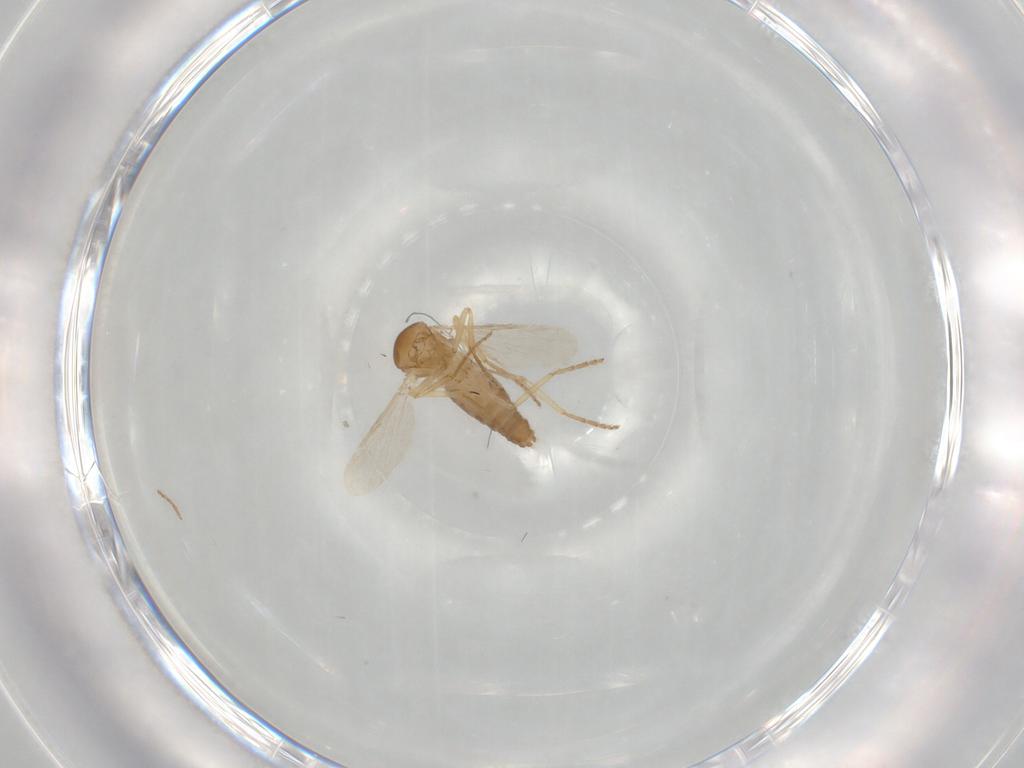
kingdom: Animalia
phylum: Arthropoda
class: Insecta
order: Diptera
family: Ceratopogonidae
